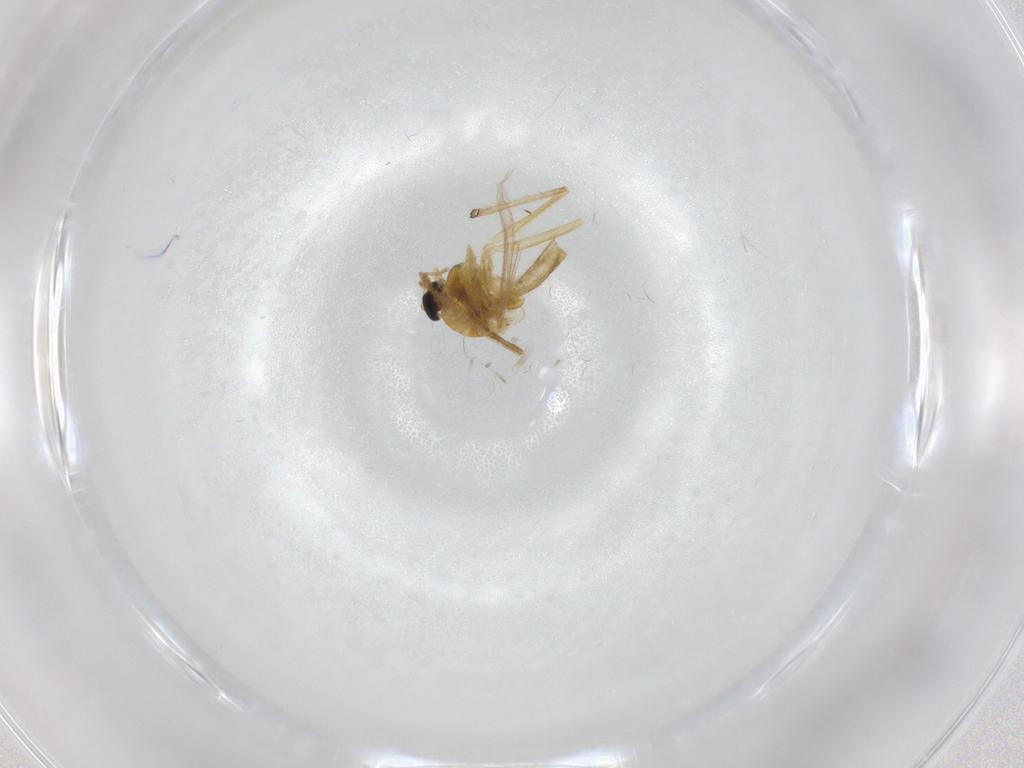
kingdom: Animalia
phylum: Arthropoda
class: Insecta
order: Diptera
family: Chironomidae
